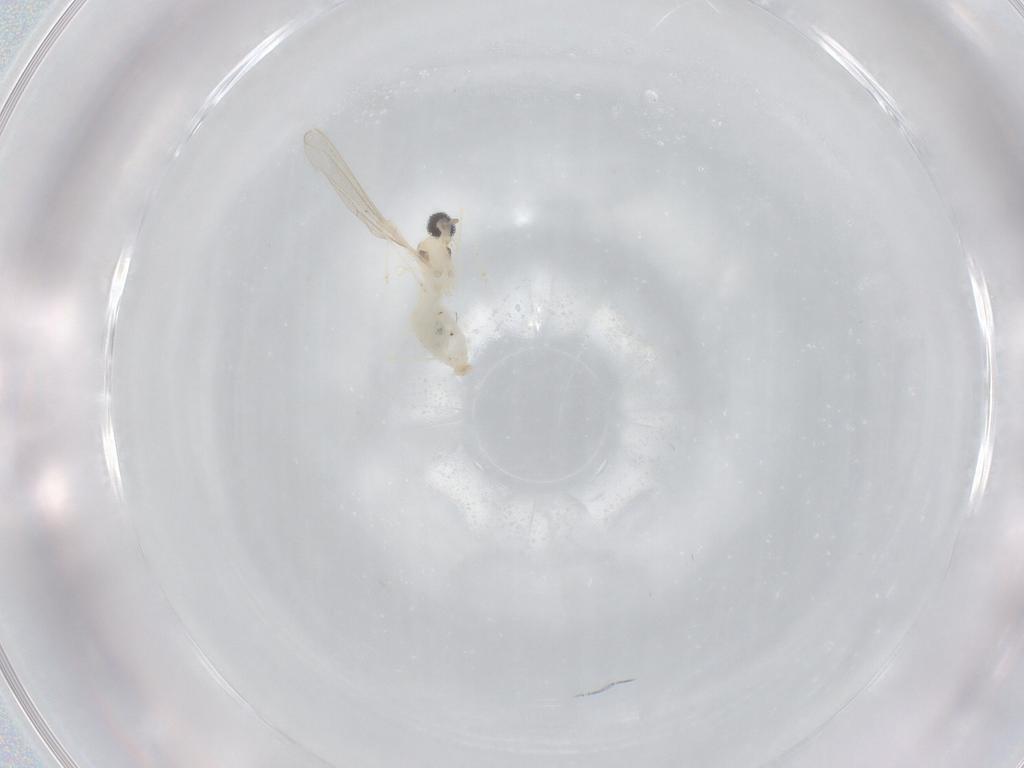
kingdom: Animalia
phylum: Arthropoda
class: Insecta
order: Diptera
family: Cecidomyiidae
